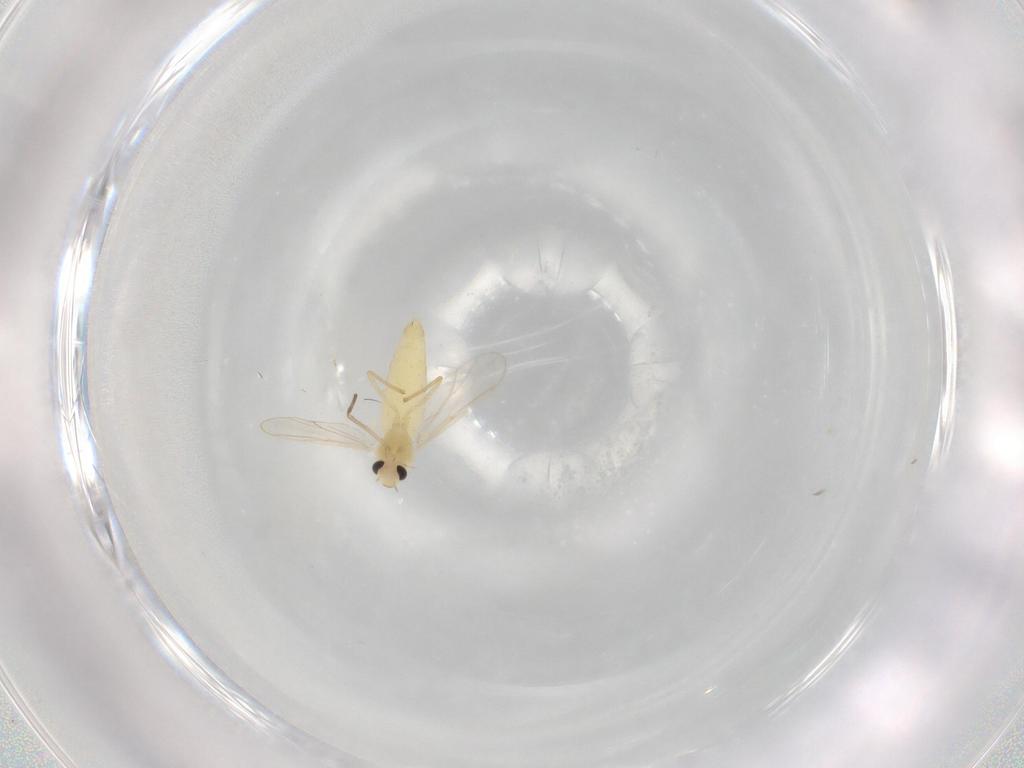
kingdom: Animalia
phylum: Arthropoda
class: Insecta
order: Diptera
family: Chironomidae
